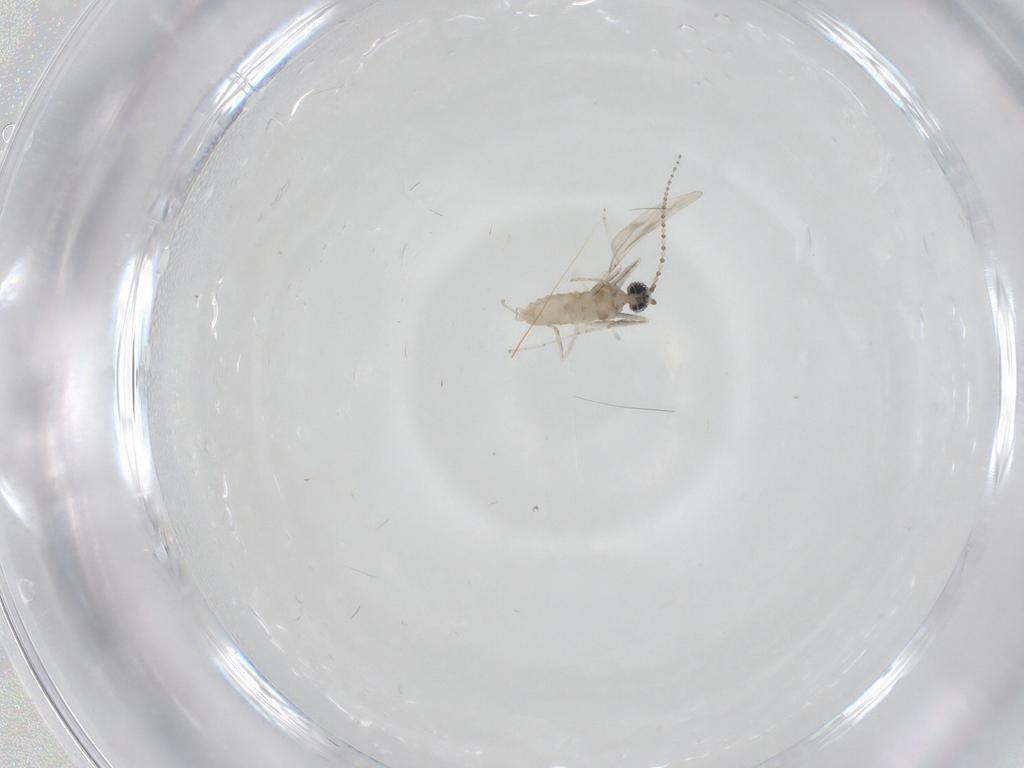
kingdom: Animalia
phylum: Arthropoda
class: Insecta
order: Diptera
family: Cecidomyiidae
